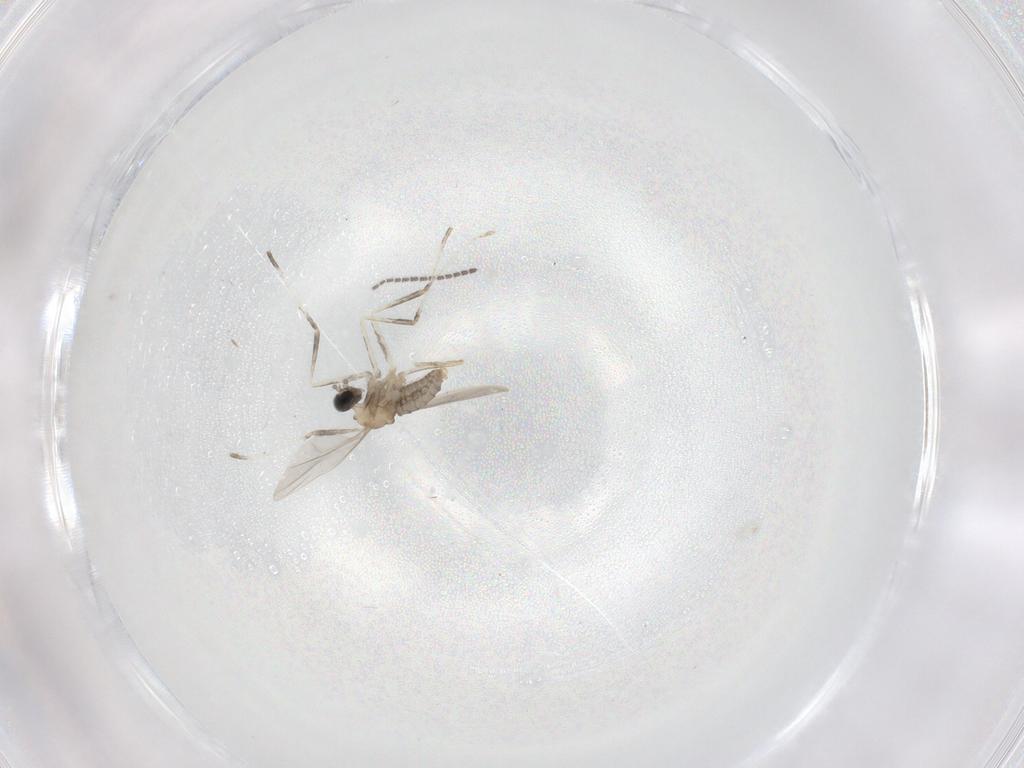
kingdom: Animalia
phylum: Arthropoda
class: Insecta
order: Diptera
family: Cecidomyiidae
